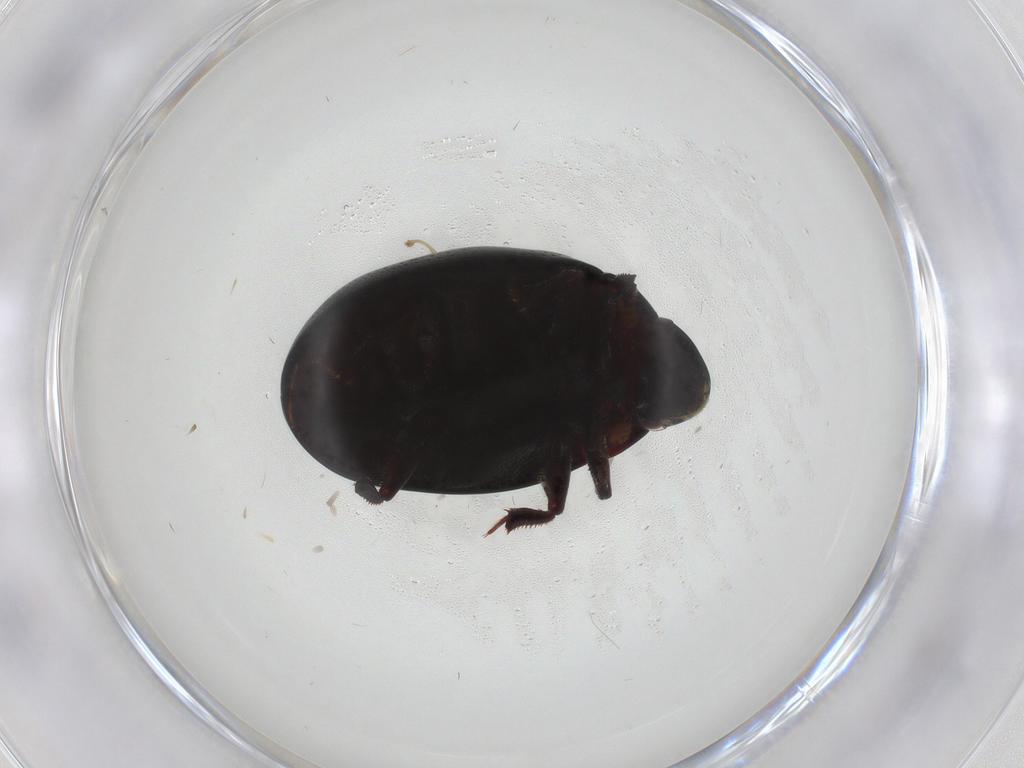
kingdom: Animalia
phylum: Arthropoda
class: Insecta
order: Coleoptera
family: Nosodendridae
